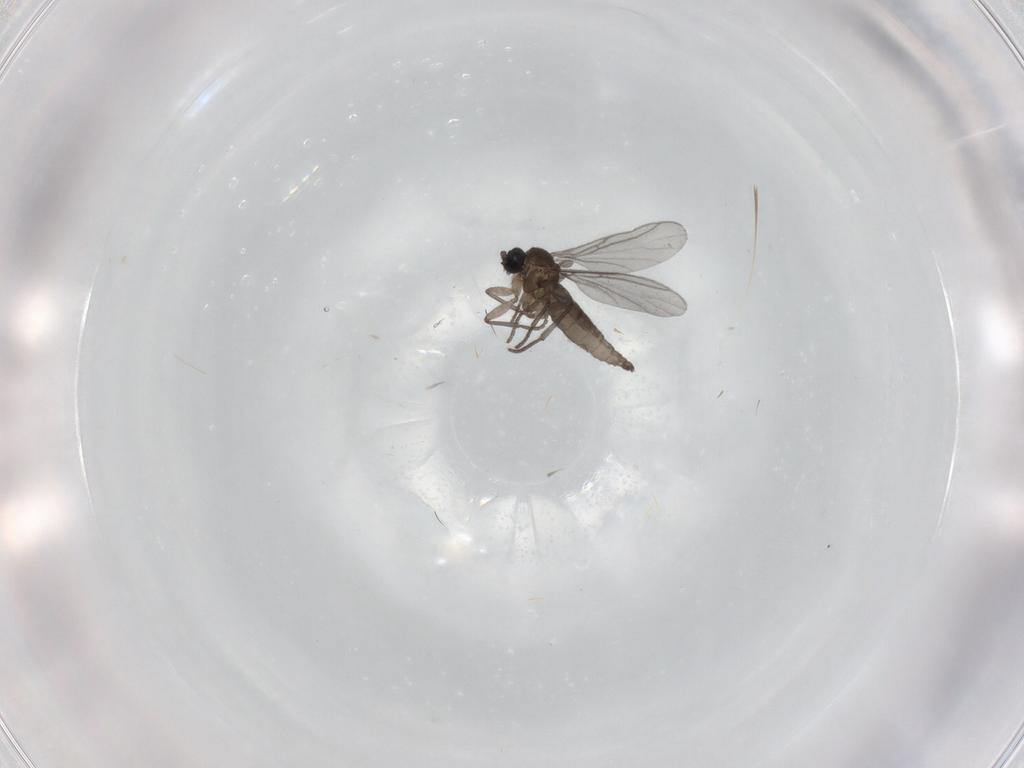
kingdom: Animalia
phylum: Arthropoda
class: Insecta
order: Diptera
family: Sciaridae
